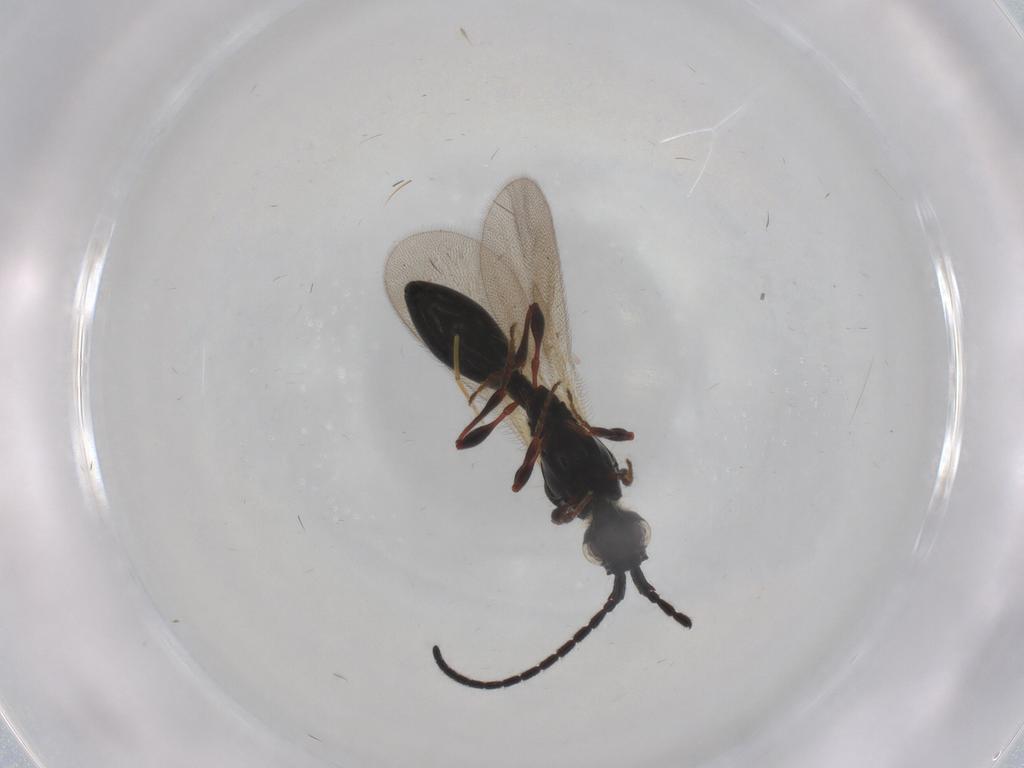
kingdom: Animalia
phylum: Arthropoda
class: Insecta
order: Hymenoptera
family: Diapriidae
